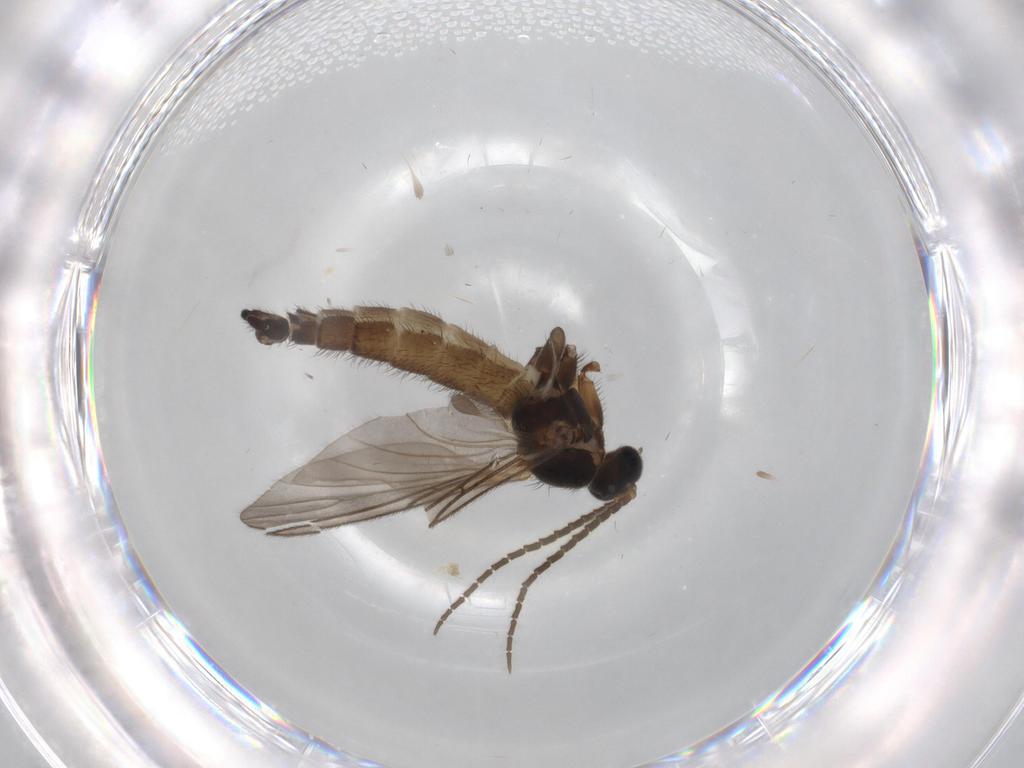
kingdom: Animalia
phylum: Arthropoda
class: Insecta
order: Diptera
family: Sciaridae
